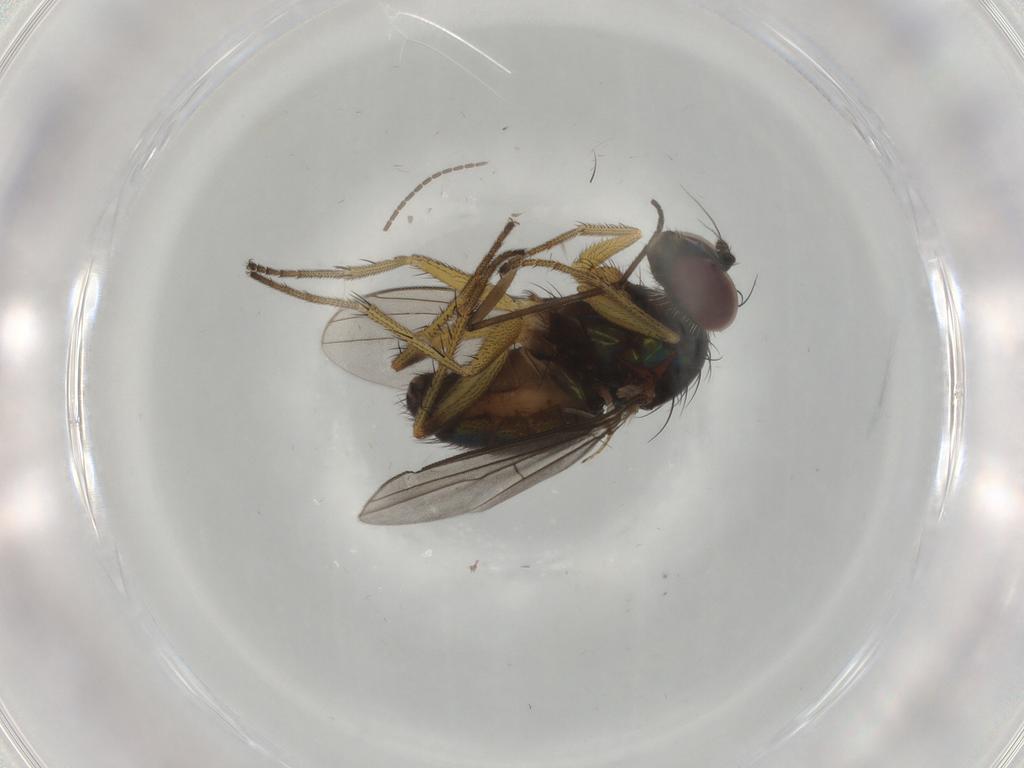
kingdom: Animalia
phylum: Arthropoda
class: Insecta
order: Diptera
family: Dolichopodidae
